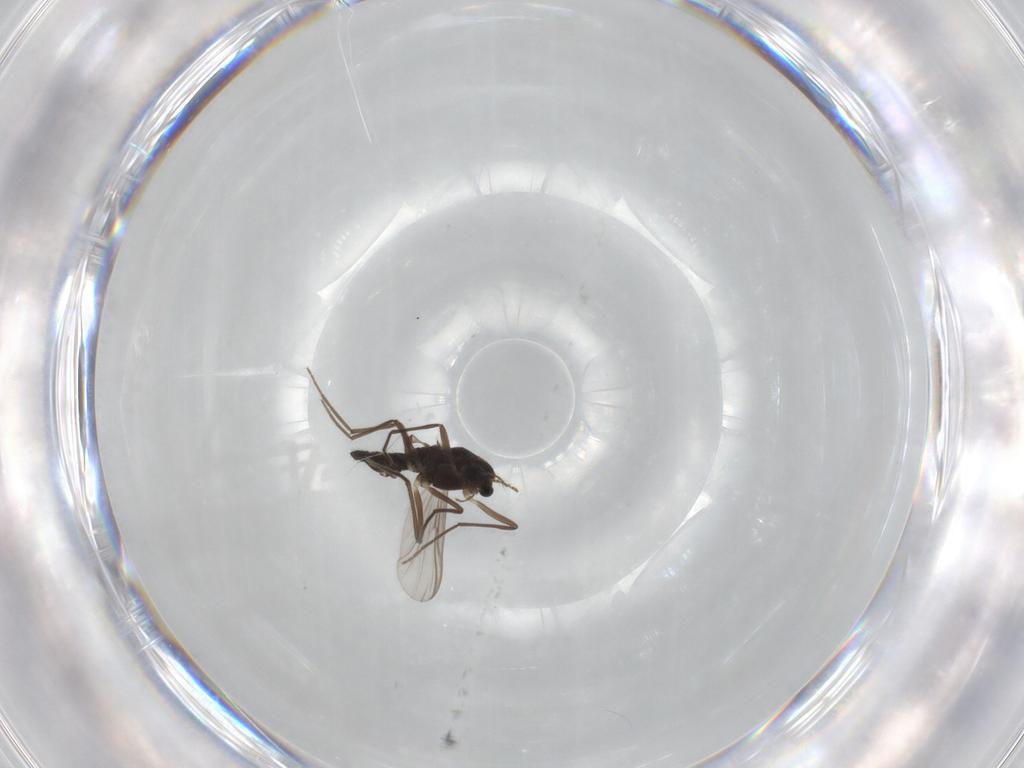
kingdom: Animalia
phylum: Arthropoda
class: Insecta
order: Diptera
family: Chironomidae
